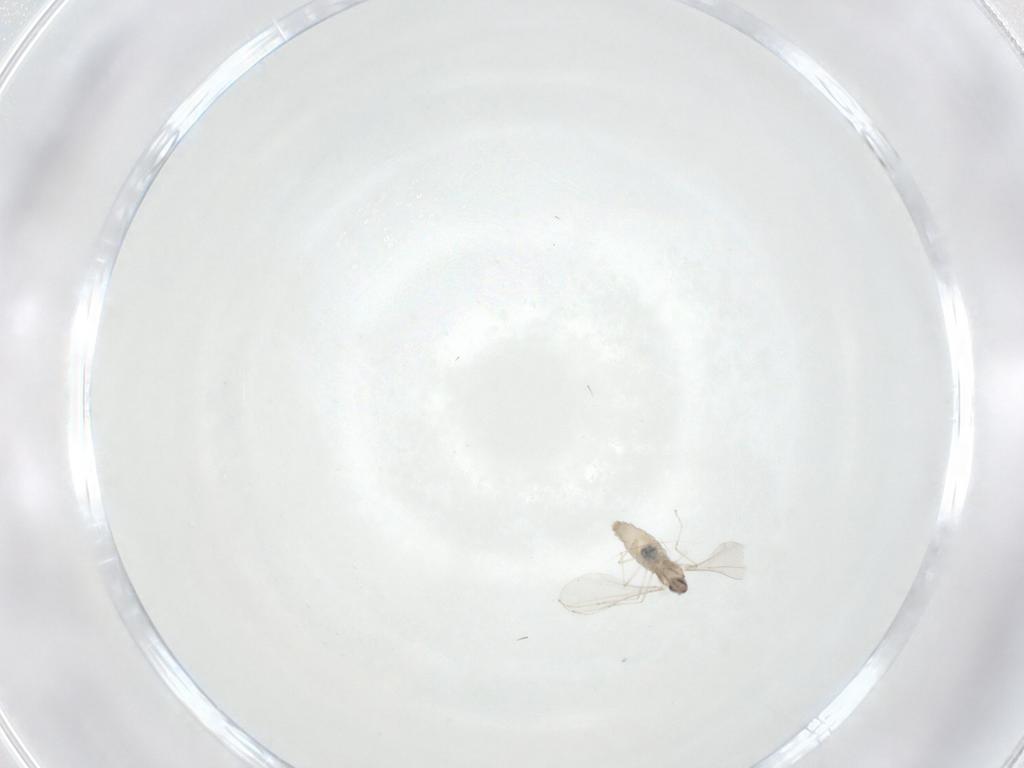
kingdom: Animalia
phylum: Arthropoda
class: Insecta
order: Diptera
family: Cecidomyiidae
